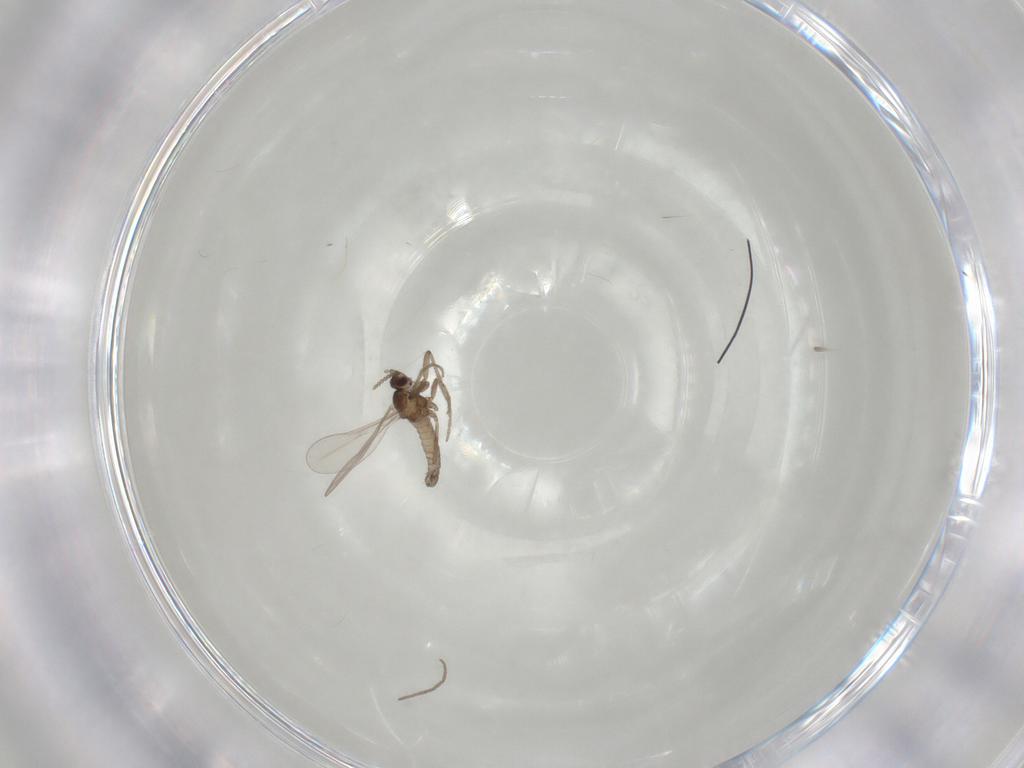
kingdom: Animalia
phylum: Arthropoda
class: Insecta
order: Diptera
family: Cecidomyiidae
